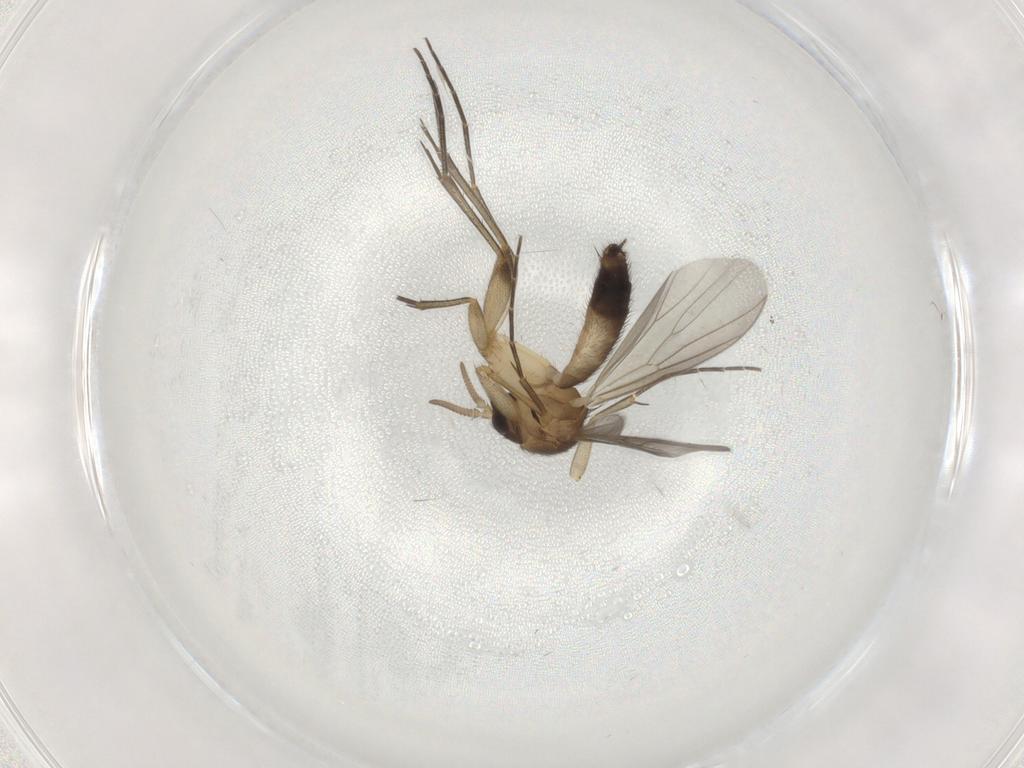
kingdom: Animalia
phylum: Arthropoda
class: Insecta
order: Diptera
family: Mycetophilidae
